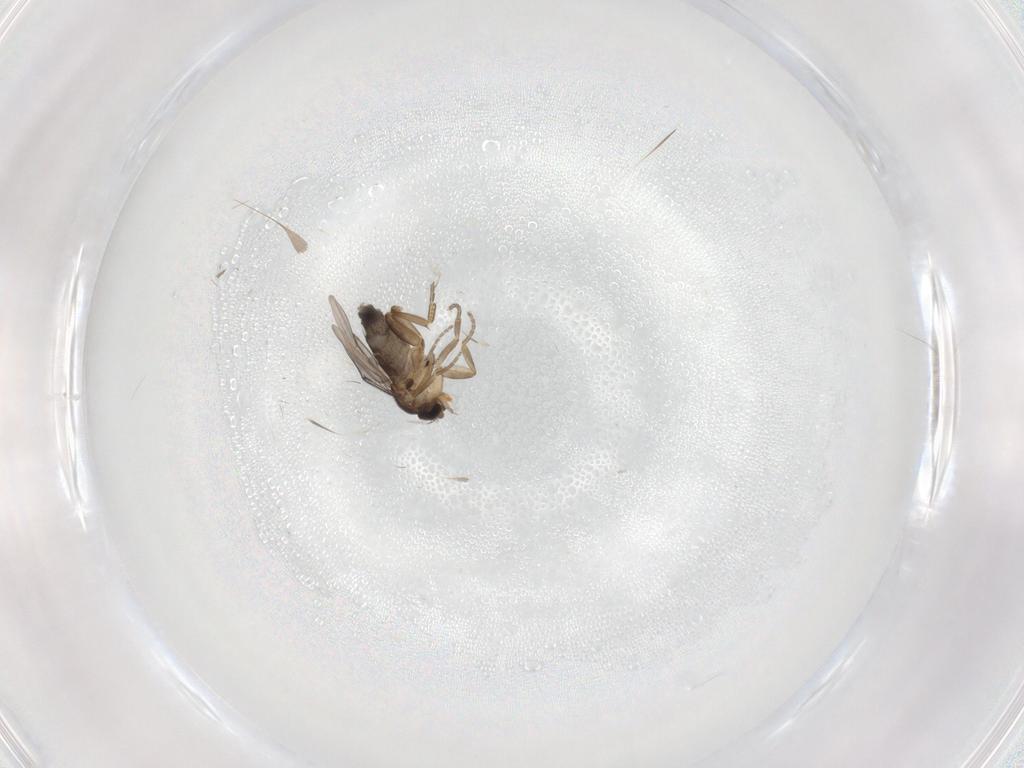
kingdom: Animalia
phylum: Arthropoda
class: Insecta
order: Diptera
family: Phoridae
